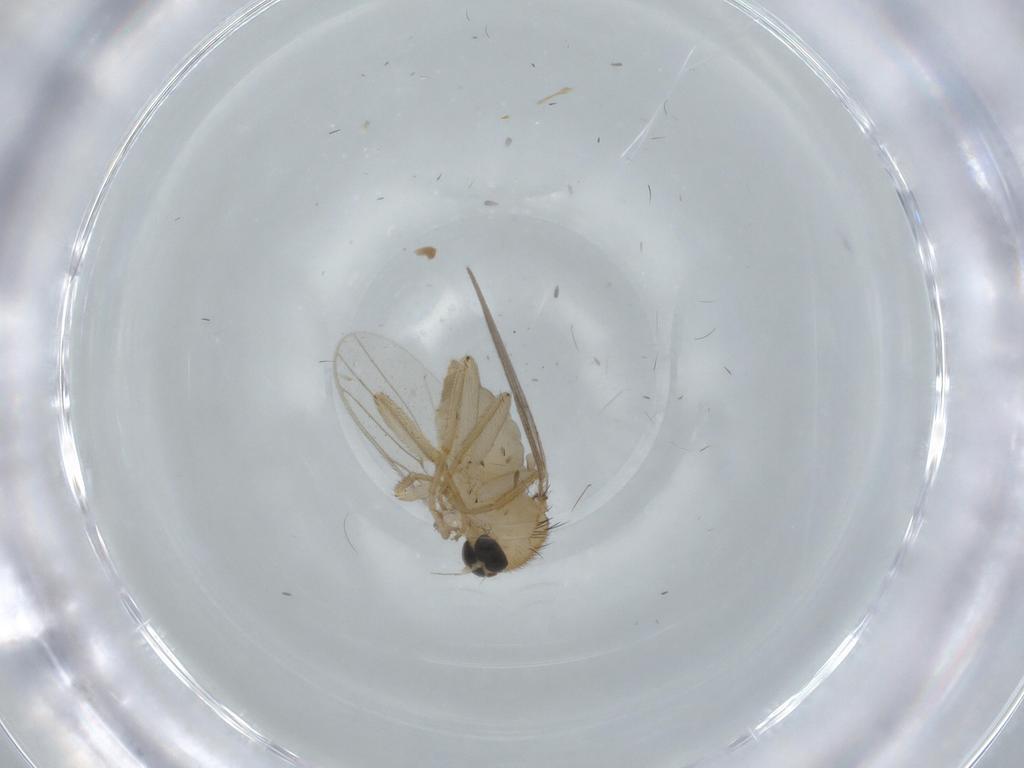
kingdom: Animalia
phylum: Arthropoda
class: Insecta
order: Diptera
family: Hybotidae
